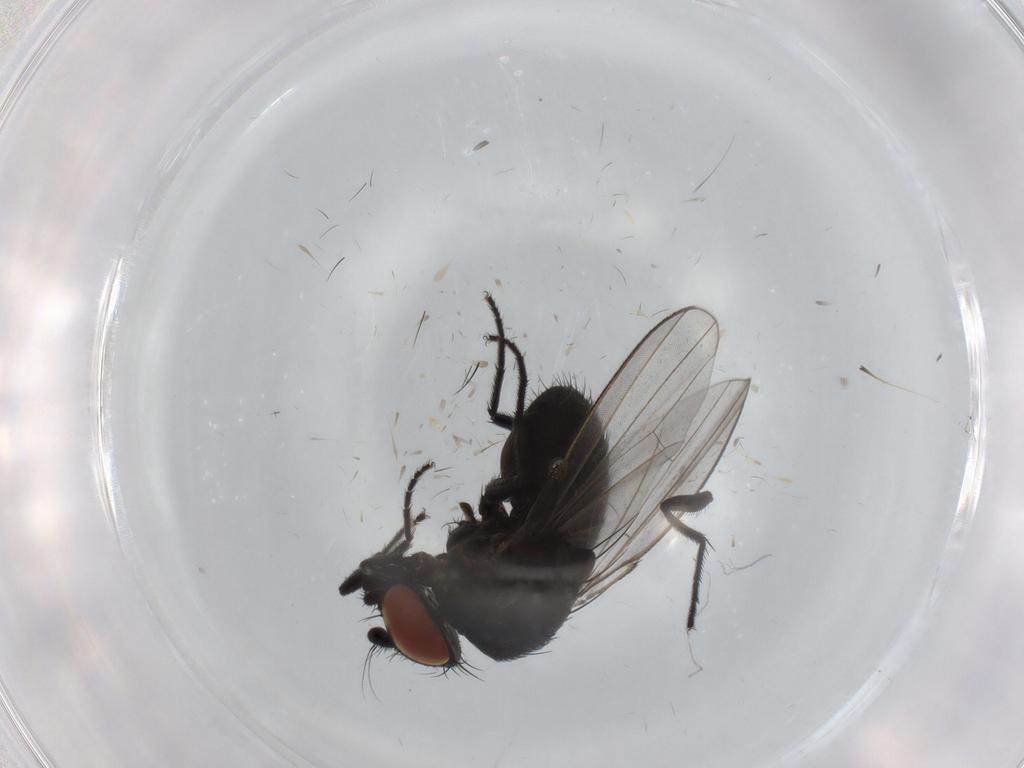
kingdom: Animalia
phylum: Arthropoda
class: Insecta
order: Diptera
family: Milichiidae
